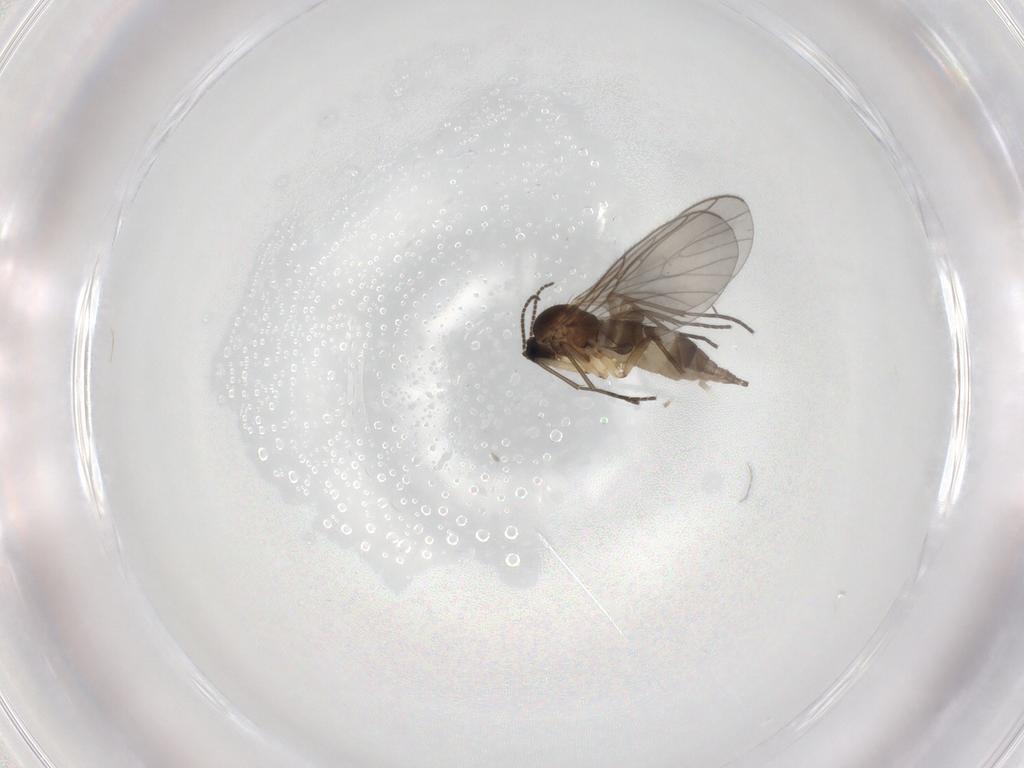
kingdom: Animalia
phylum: Arthropoda
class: Insecta
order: Diptera
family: Sciaridae
